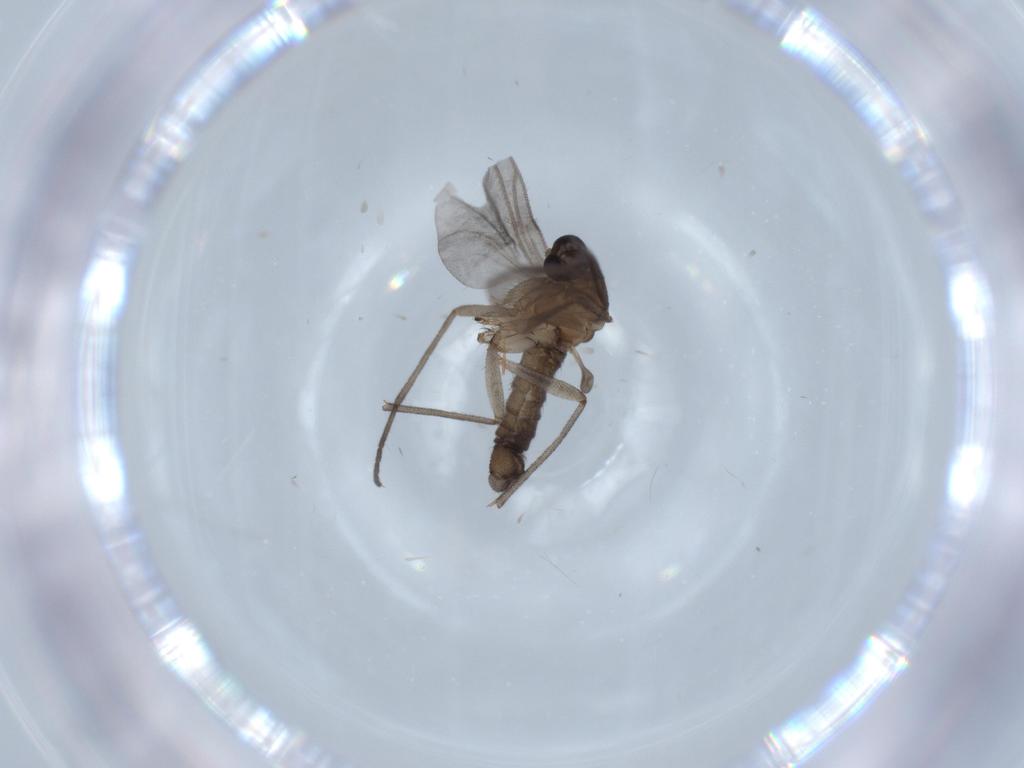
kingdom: Animalia
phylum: Arthropoda
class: Insecta
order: Diptera
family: Sciaridae
